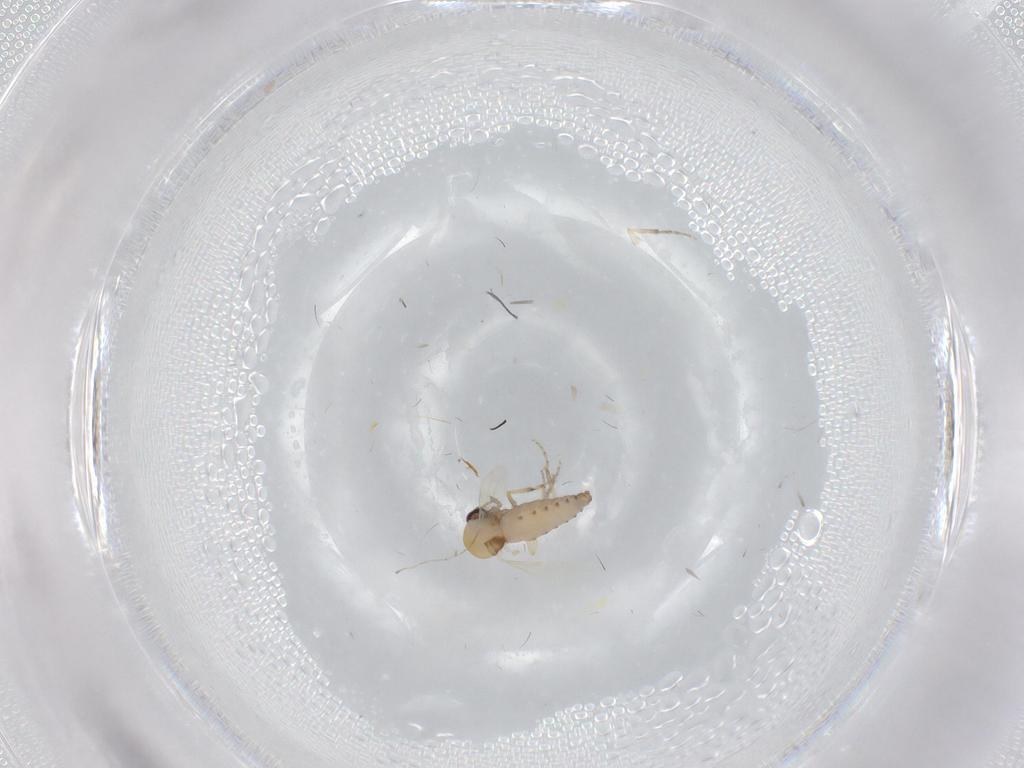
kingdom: Animalia
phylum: Arthropoda
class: Insecta
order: Diptera
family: Ceratopogonidae
